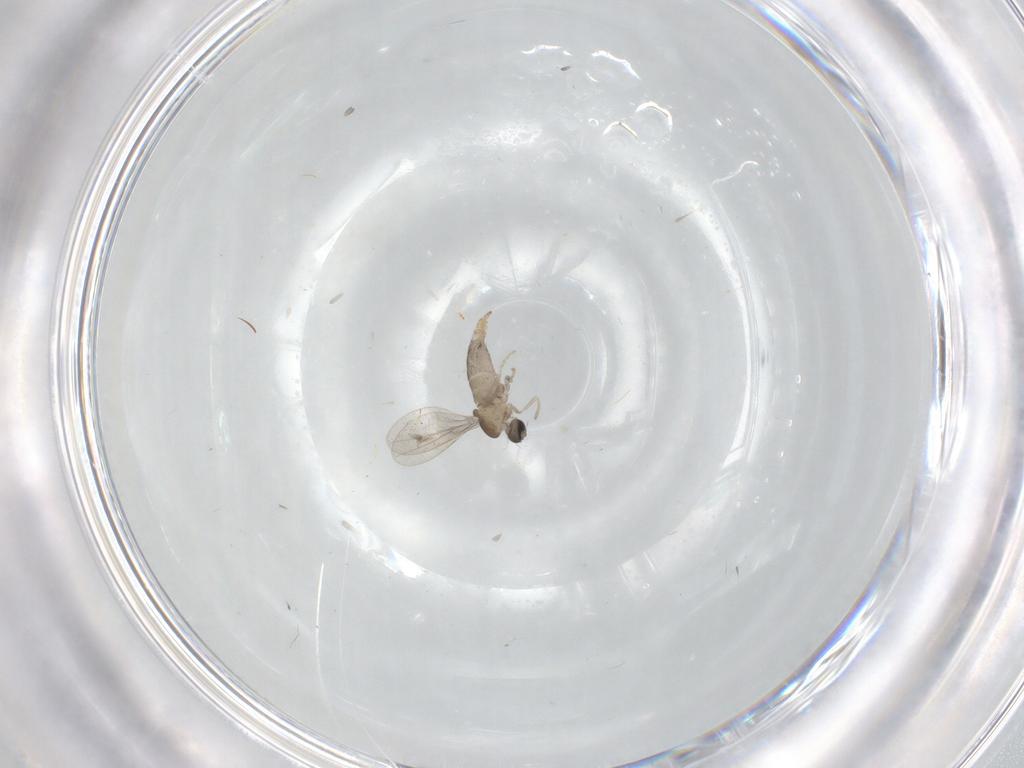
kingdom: Animalia
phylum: Arthropoda
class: Insecta
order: Diptera
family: Cecidomyiidae
